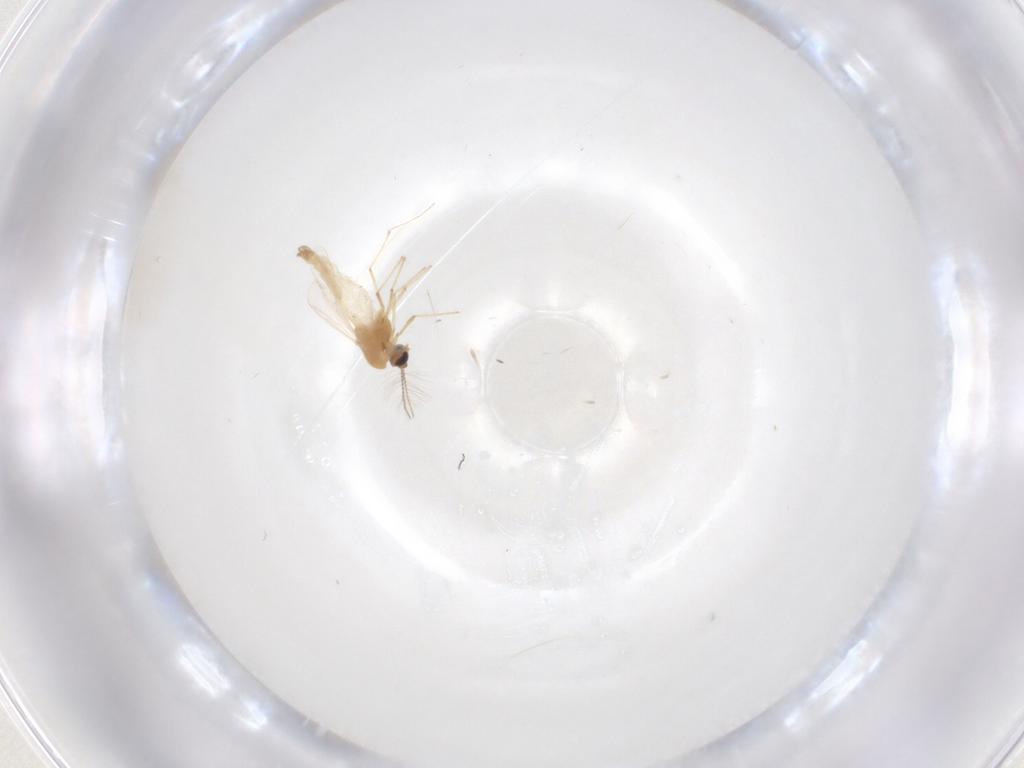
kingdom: Animalia
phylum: Arthropoda
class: Insecta
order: Diptera
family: Chironomidae
